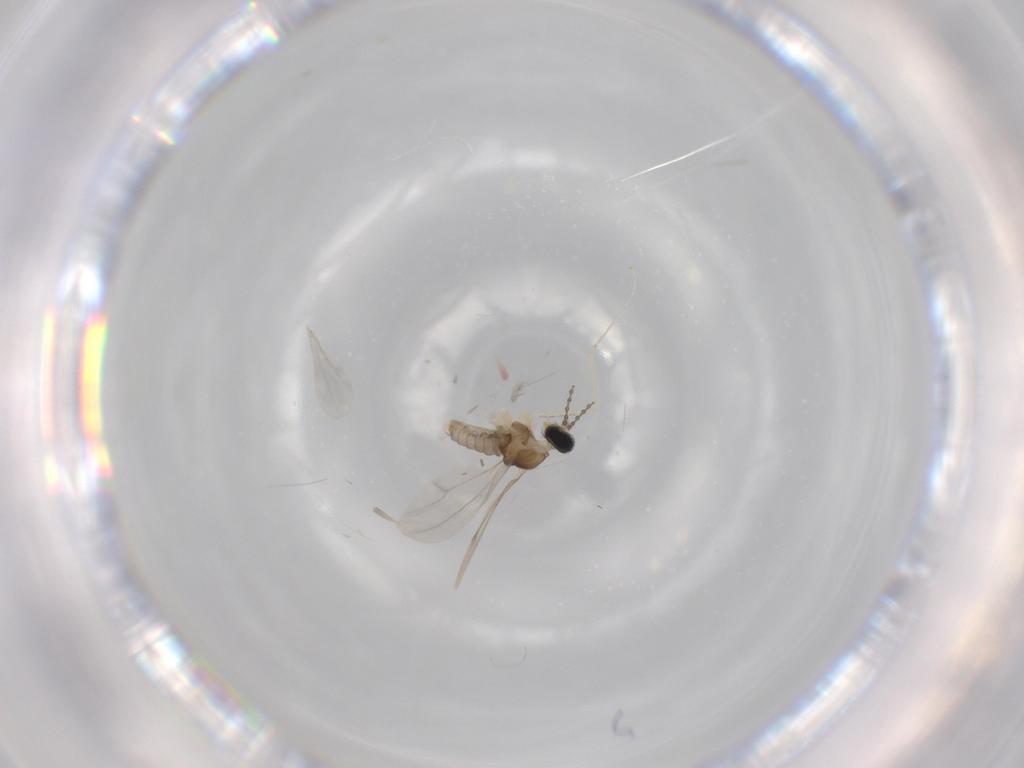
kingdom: Animalia
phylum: Arthropoda
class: Insecta
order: Diptera
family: Cecidomyiidae
